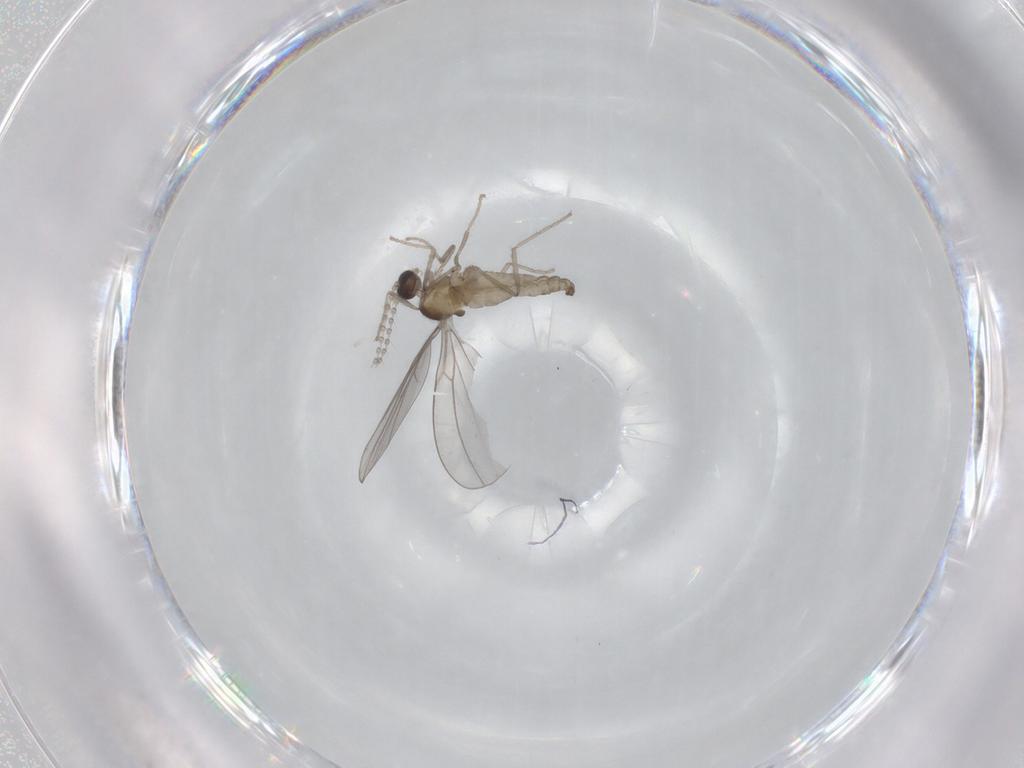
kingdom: Animalia
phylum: Arthropoda
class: Insecta
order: Diptera
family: Cecidomyiidae
